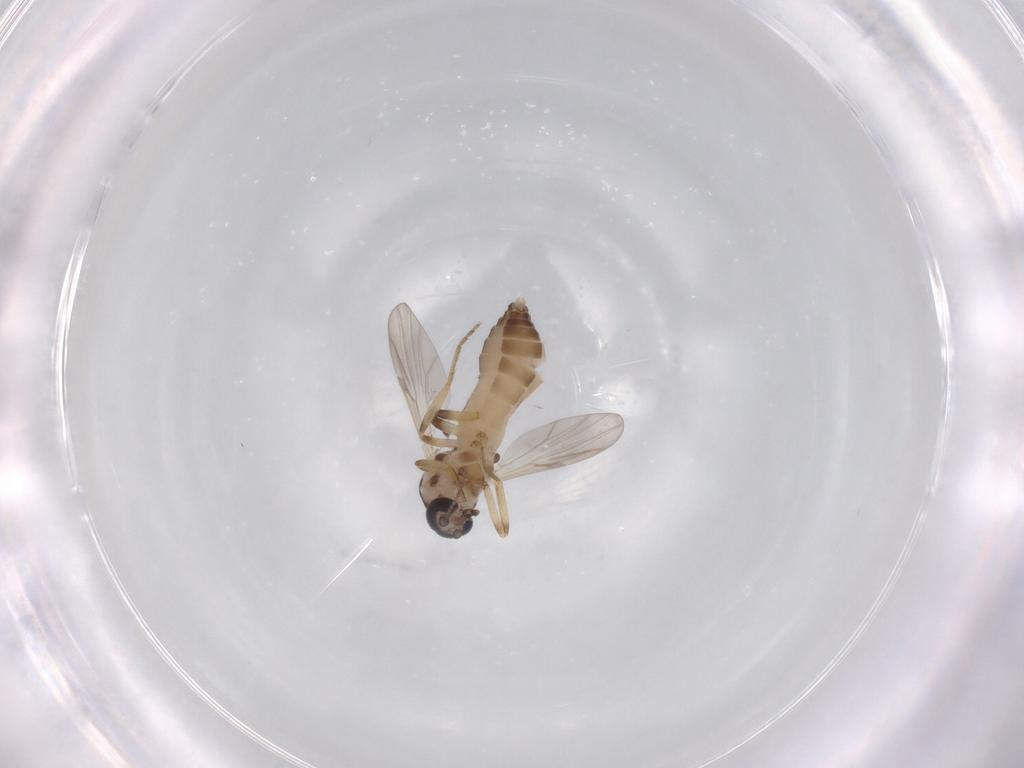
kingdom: Animalia
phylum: Arthropoda
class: Insecta
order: Diptera
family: Ceratopogonidae
